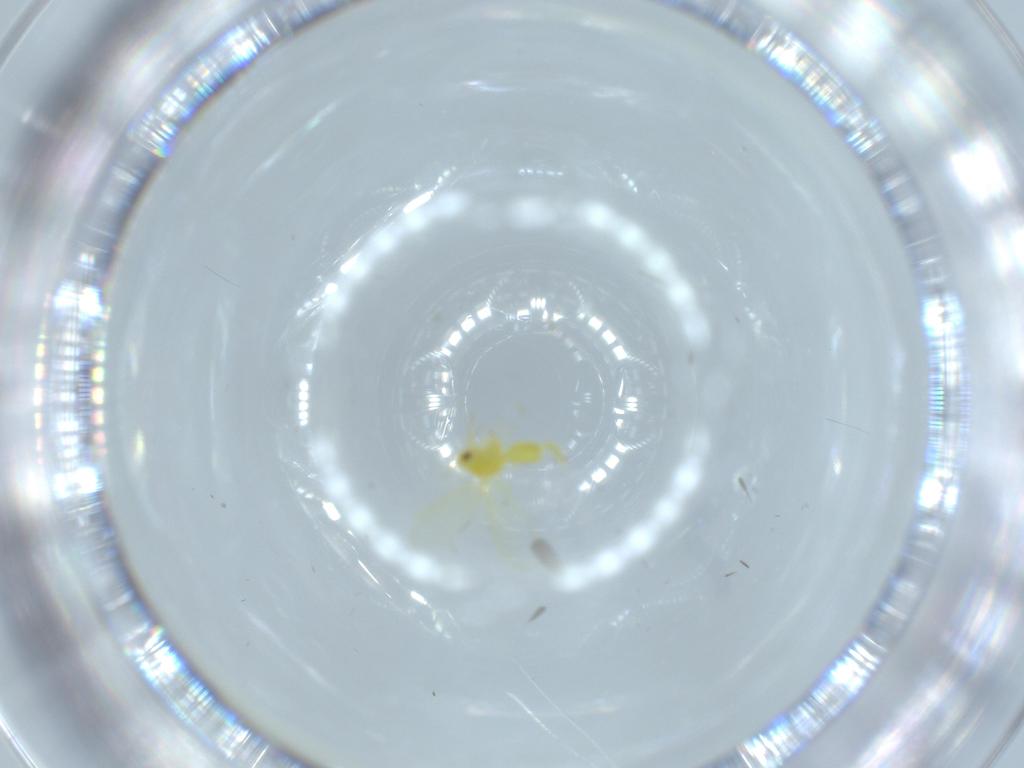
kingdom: Animalia
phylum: Arthropoda
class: Insecta
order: Hemiptera
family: Aleyrodidae
